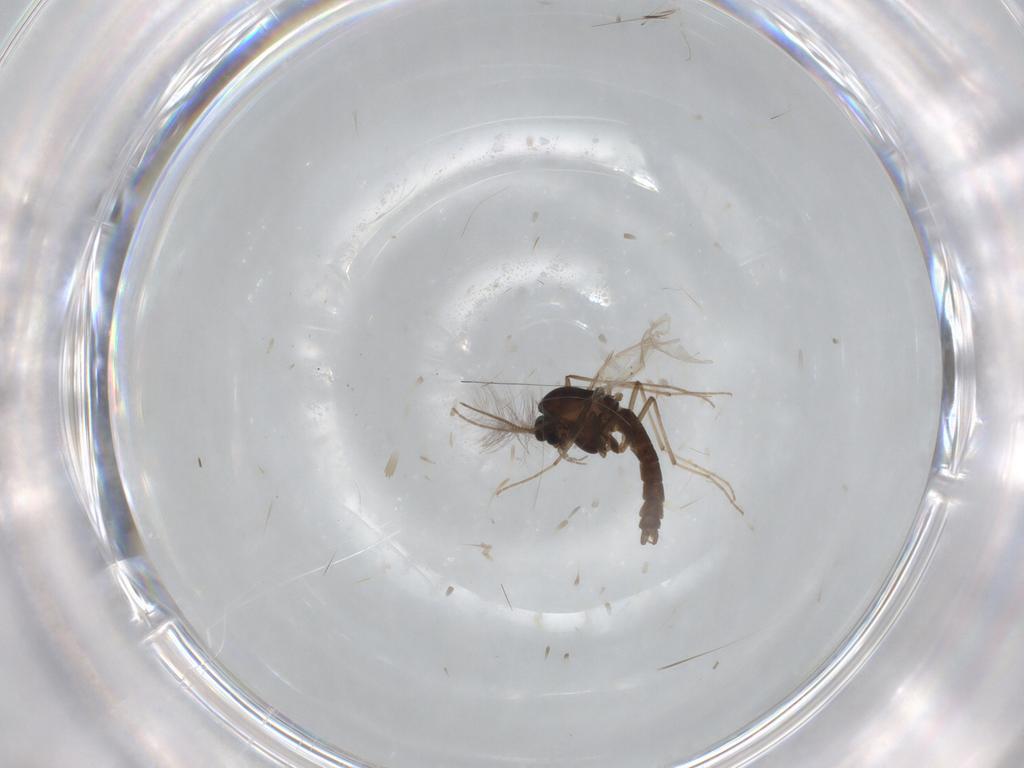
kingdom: Animalia
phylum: Arthropoda
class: Insecta
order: Diptera
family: Chironomidae
